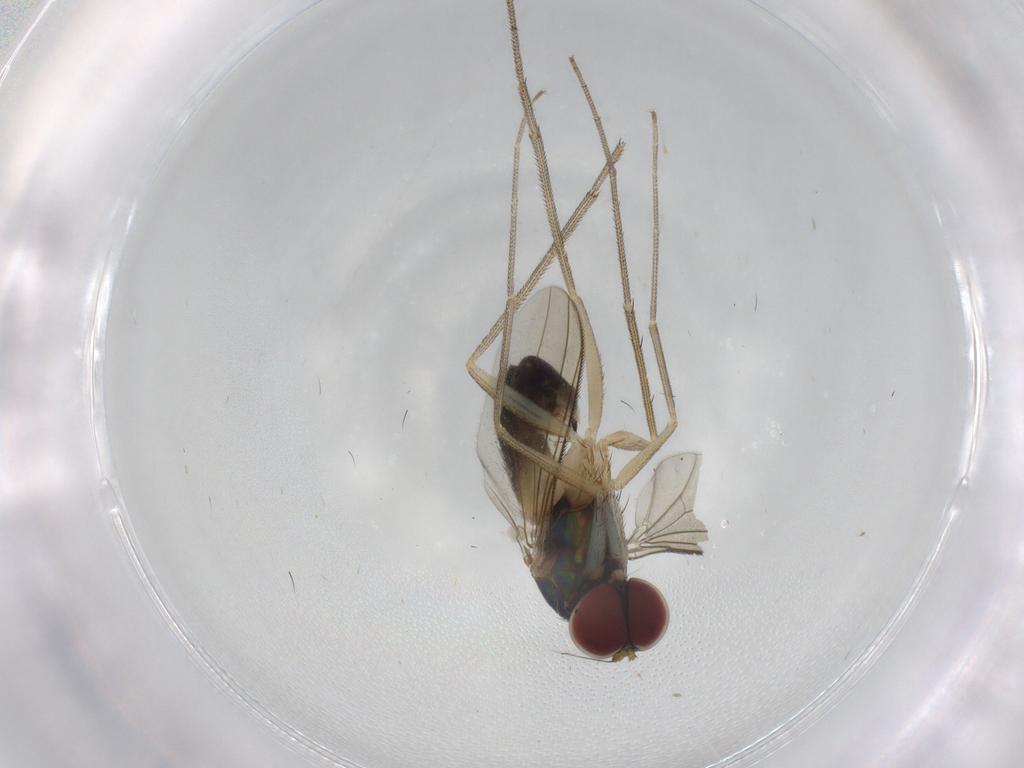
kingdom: Animalia
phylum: Arthropoda
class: Insecta
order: Diptera
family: Dolichopodidae
